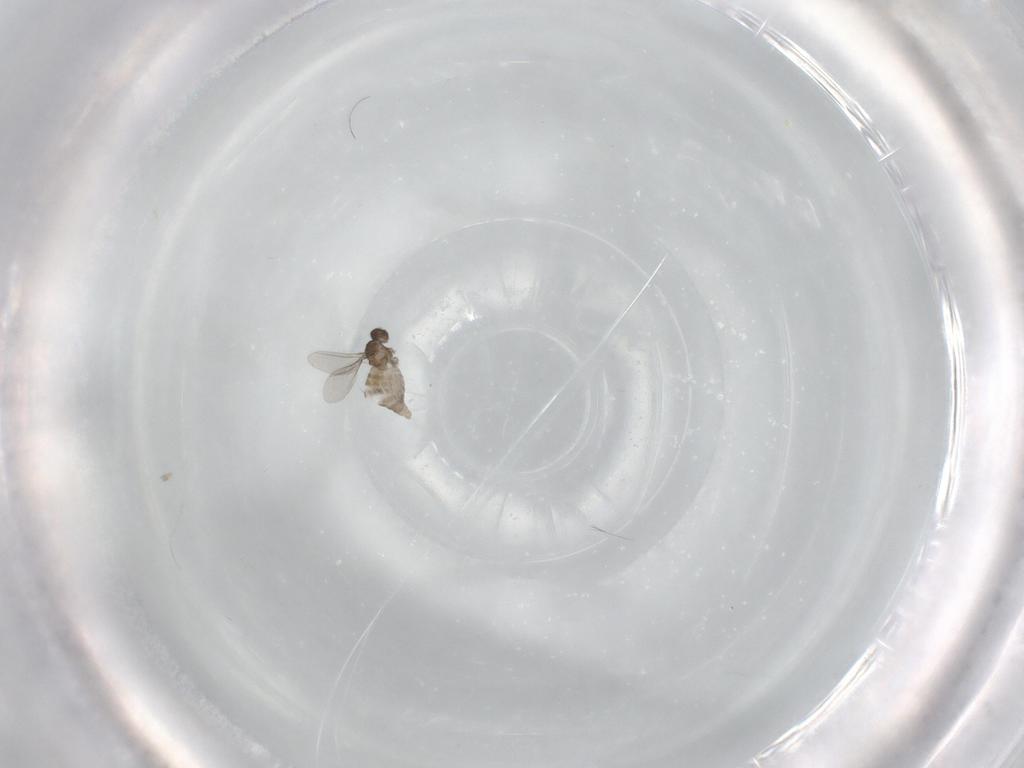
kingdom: Animalia
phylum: Arthropoda
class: Insecta
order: Diptera
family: Cecidomyiidae
